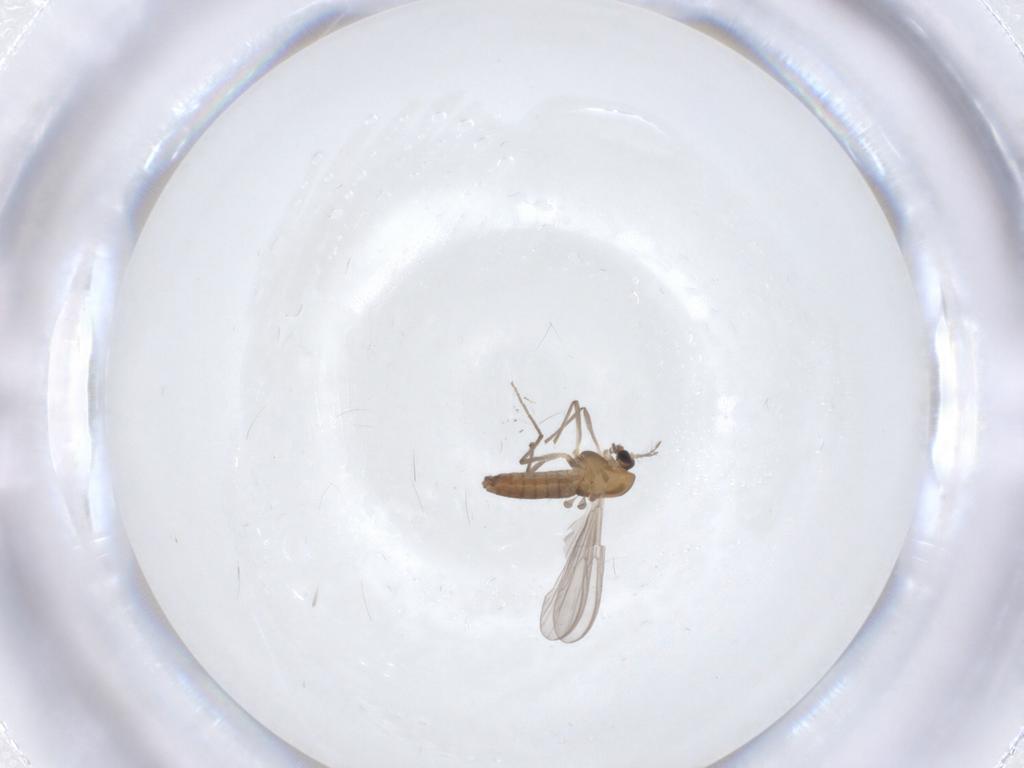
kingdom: Animalia
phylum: Arthropoda
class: Insecta
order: Diptera
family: Chironomidae
